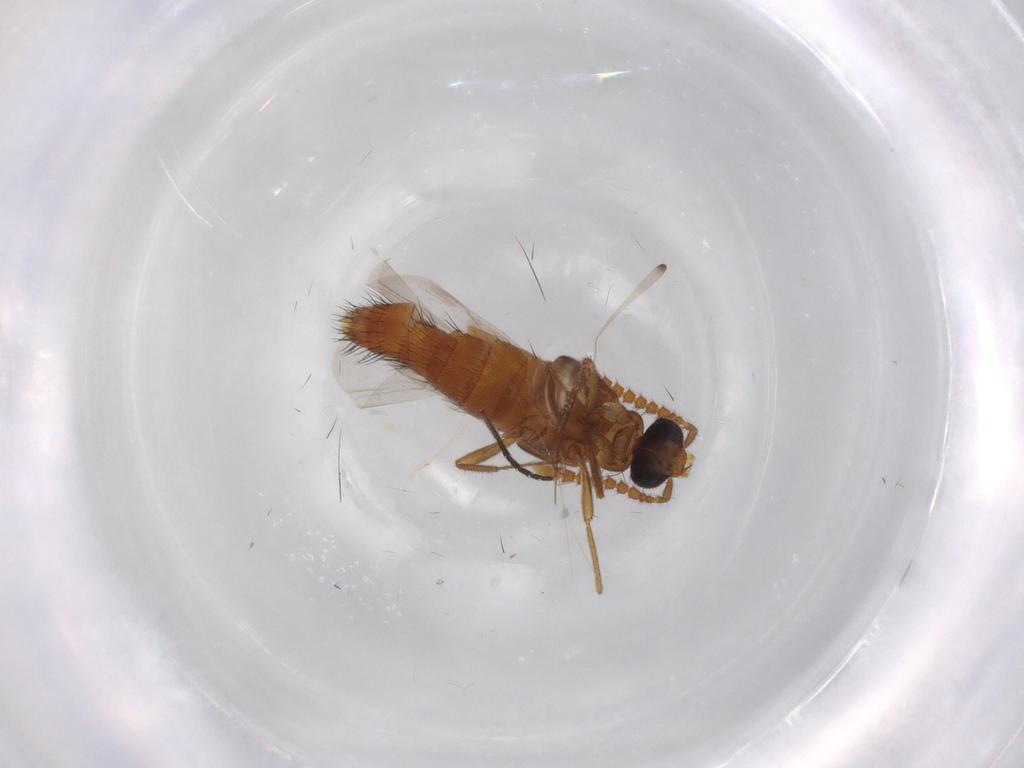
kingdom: Animalia
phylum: Arthropoda
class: Insecta
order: Coleoptera
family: Staphylinidae
